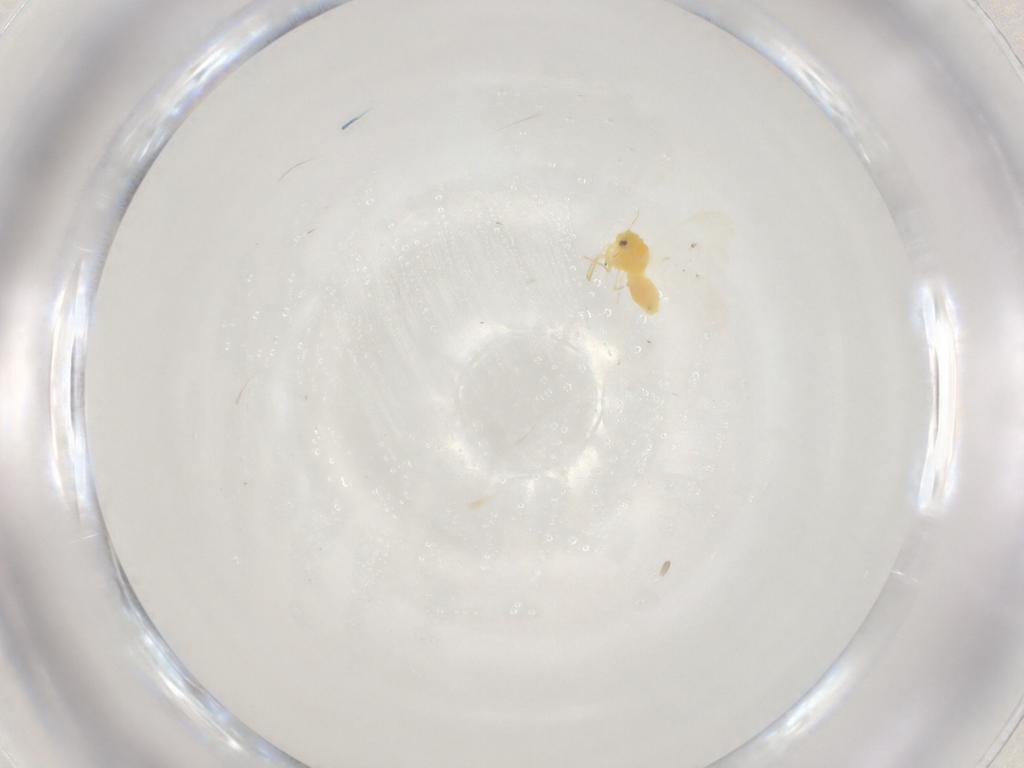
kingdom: Animalia
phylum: Arthropoda
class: Insecta
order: Hemiptera
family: Aleyrodidae
